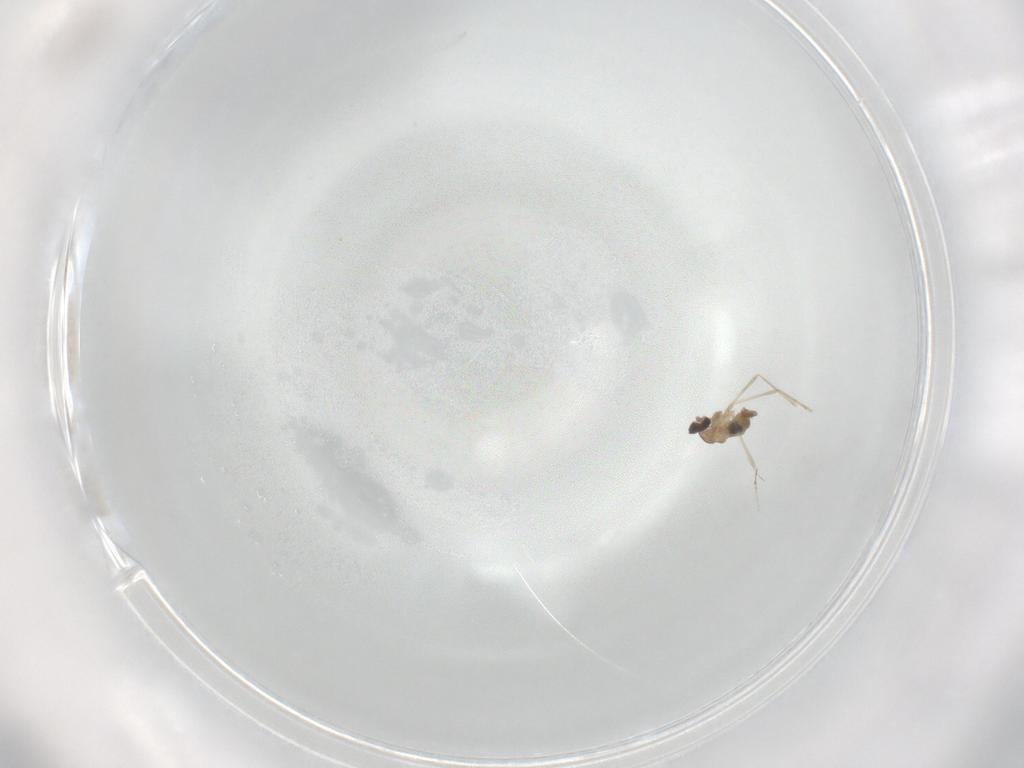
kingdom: Animalia
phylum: Arthropoda
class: Insecta
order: Diptera
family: Cecidomyiidae
